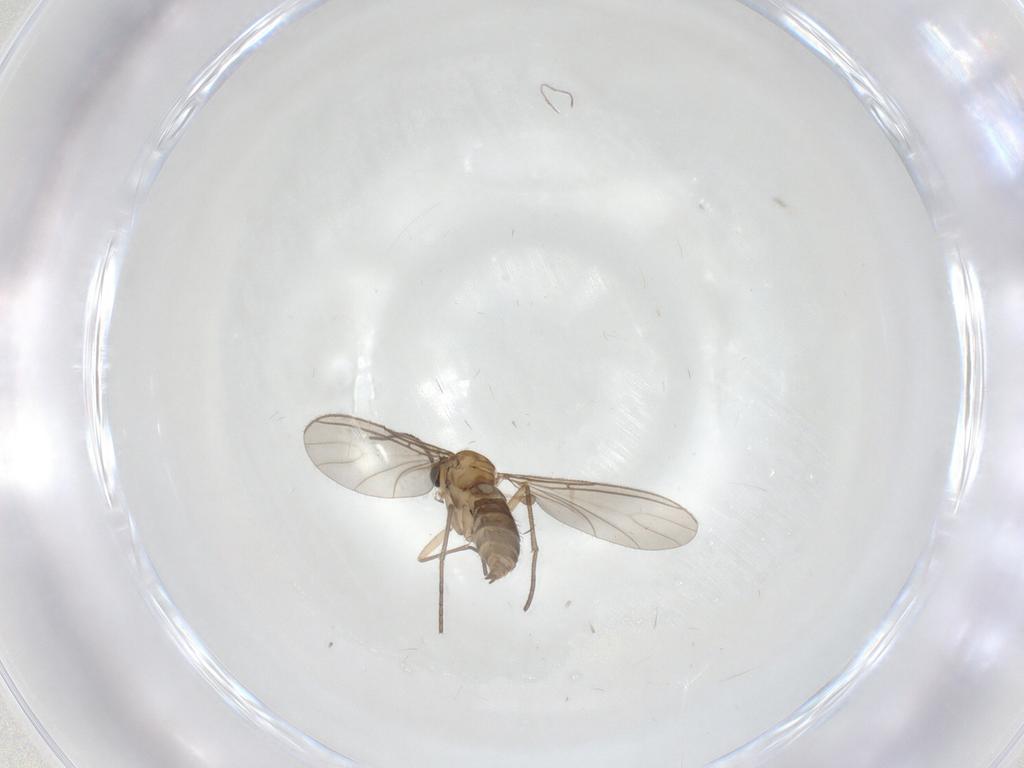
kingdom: Animalia
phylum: Arthropoda
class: Insecta
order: Diptera
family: Sciaridae
